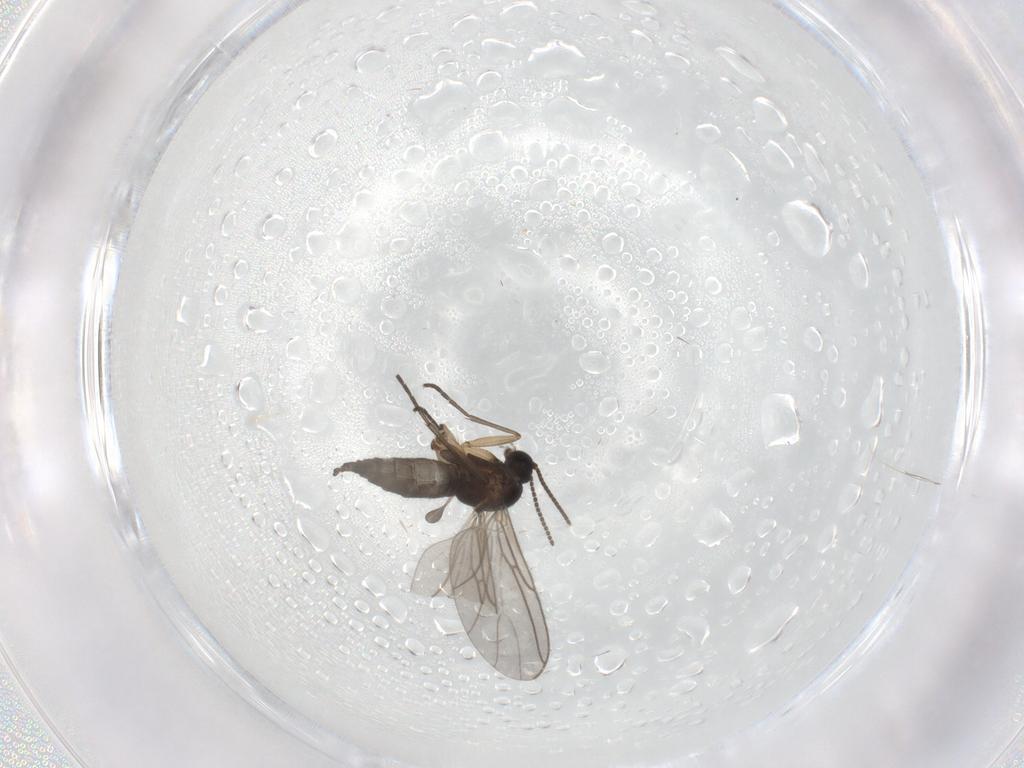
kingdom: Animalia
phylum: Arthropoda
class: Insecta
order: Diptera
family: Sciaridae
